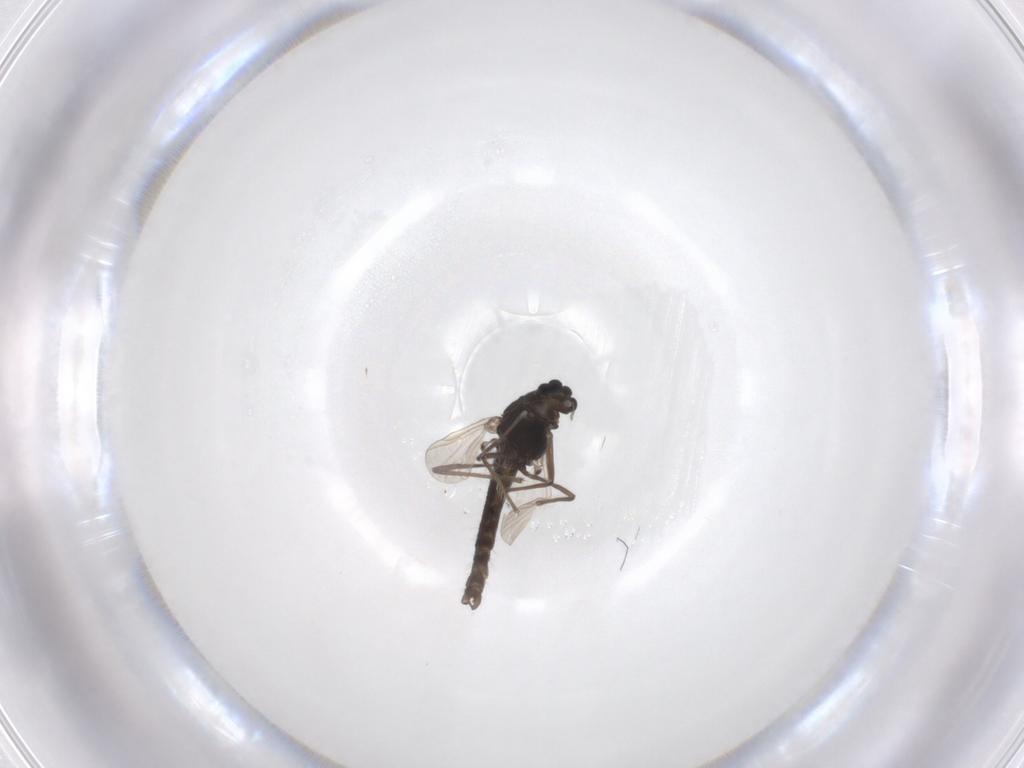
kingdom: Animalia
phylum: Arthropoda
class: Insecta
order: Diptera
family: Chironomidae
